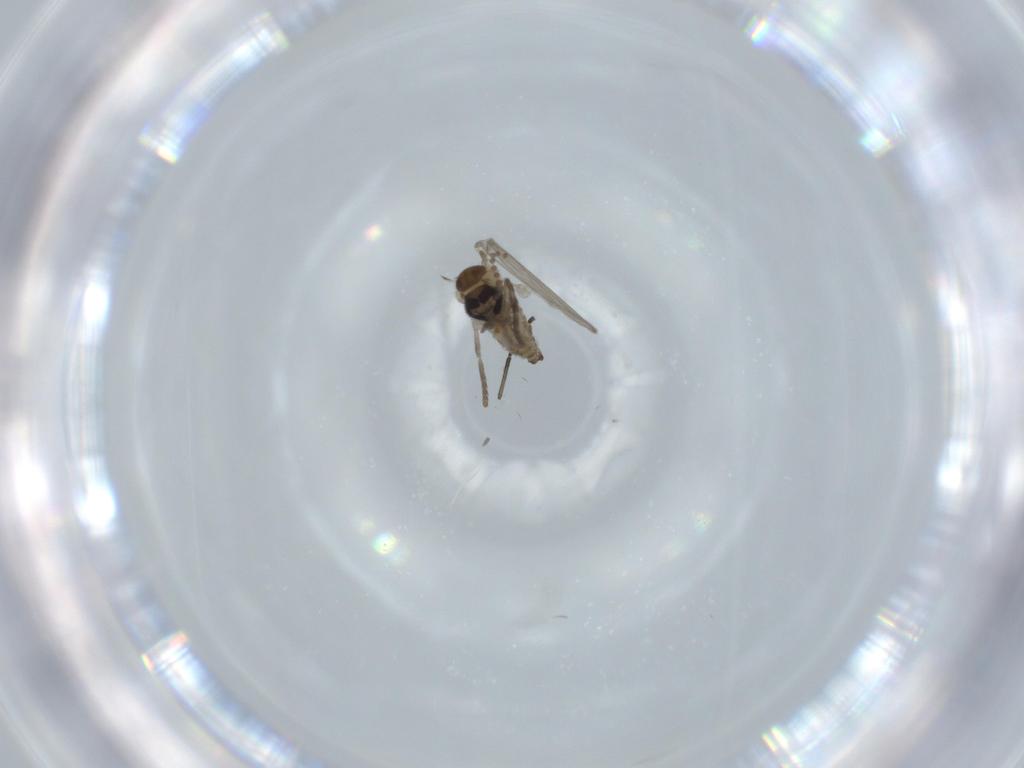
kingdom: Animalia
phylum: Arthropoda
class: Insecta
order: Diptera
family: Psychodidae
